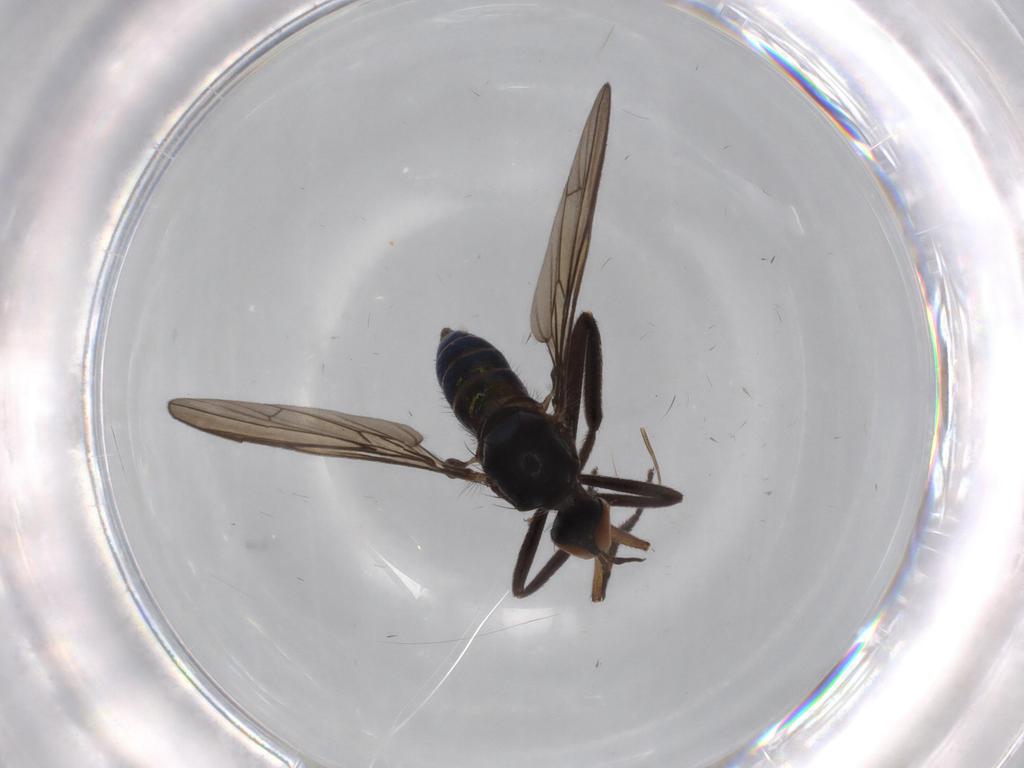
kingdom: Animalia
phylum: Arthropoda
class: Insecta
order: Diptera
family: Empididae
